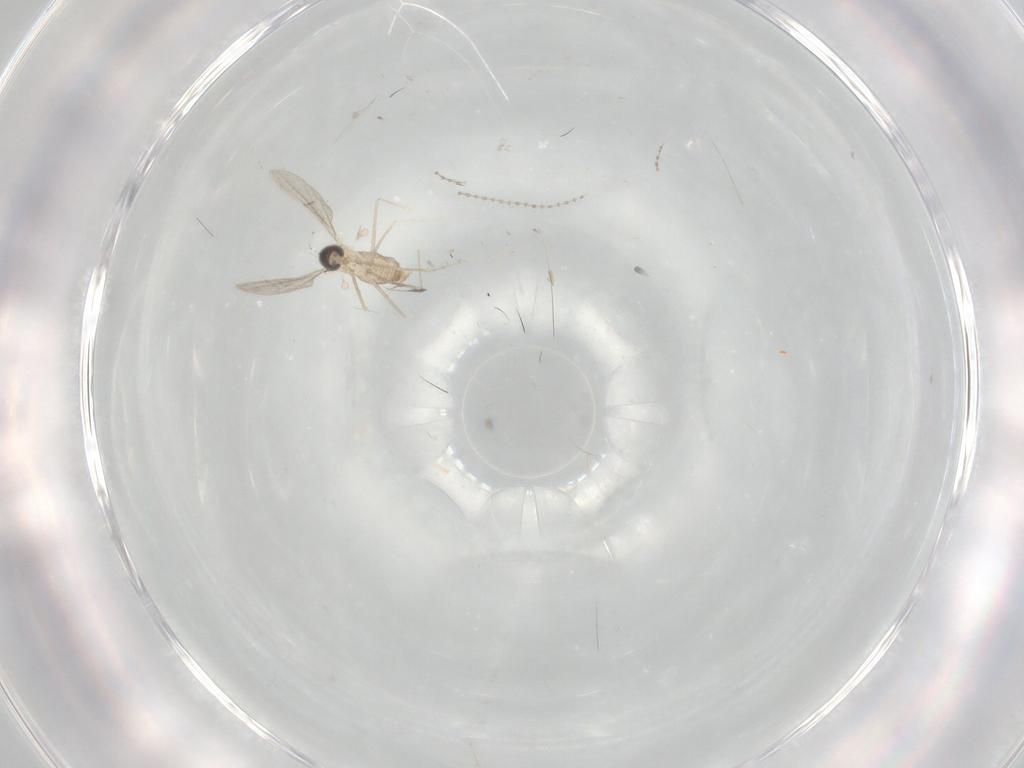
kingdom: Animalia
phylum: Arthropoda
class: Insecta
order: Diptera
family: Cecidomyiidae
